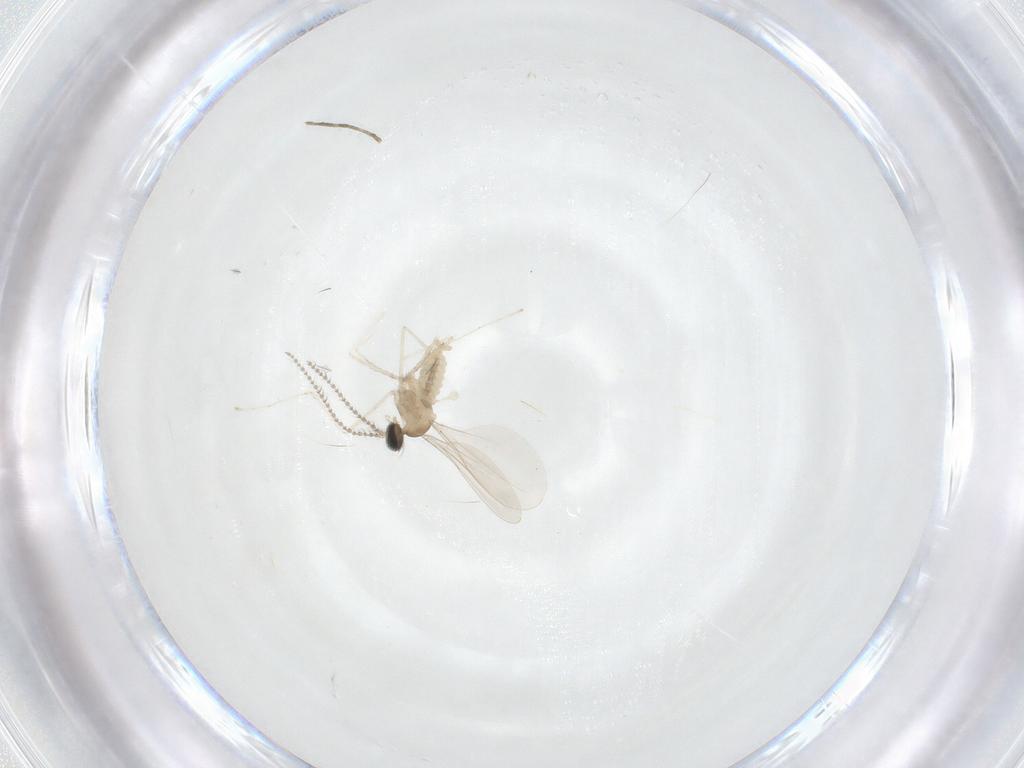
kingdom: Animalia
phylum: Arthropoda
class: Insecta
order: Diptera
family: Cecidomyiidae
